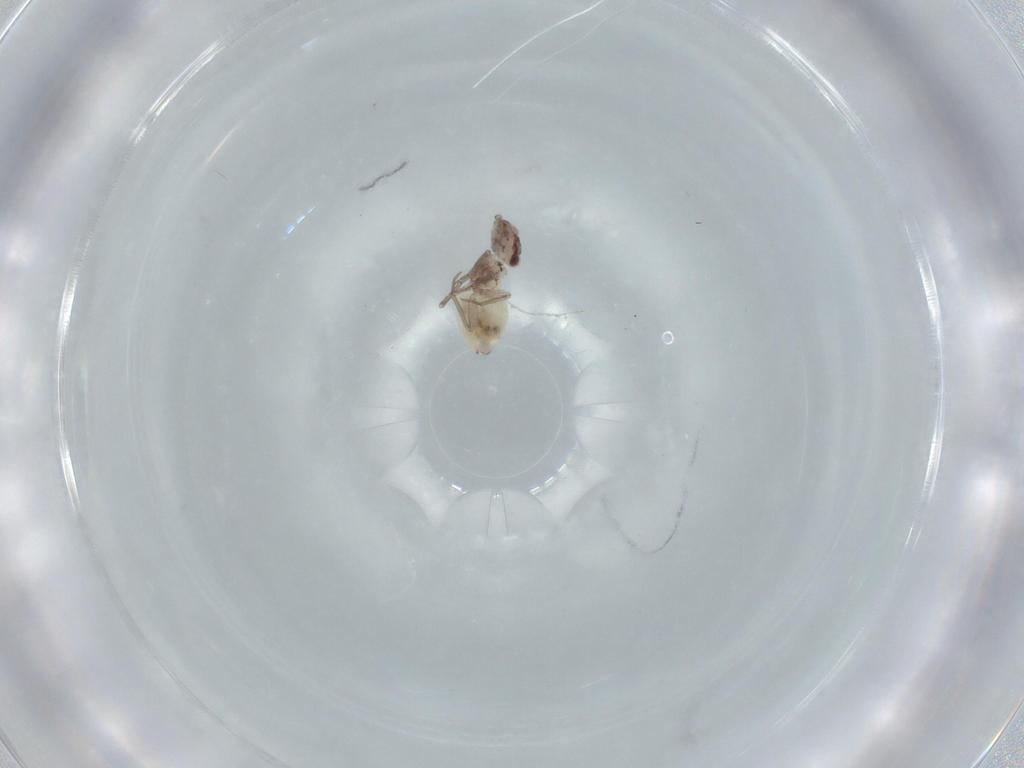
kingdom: Animalia
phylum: Arthropoda
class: Insecta
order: Psocodea
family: Lepidopsocidae
